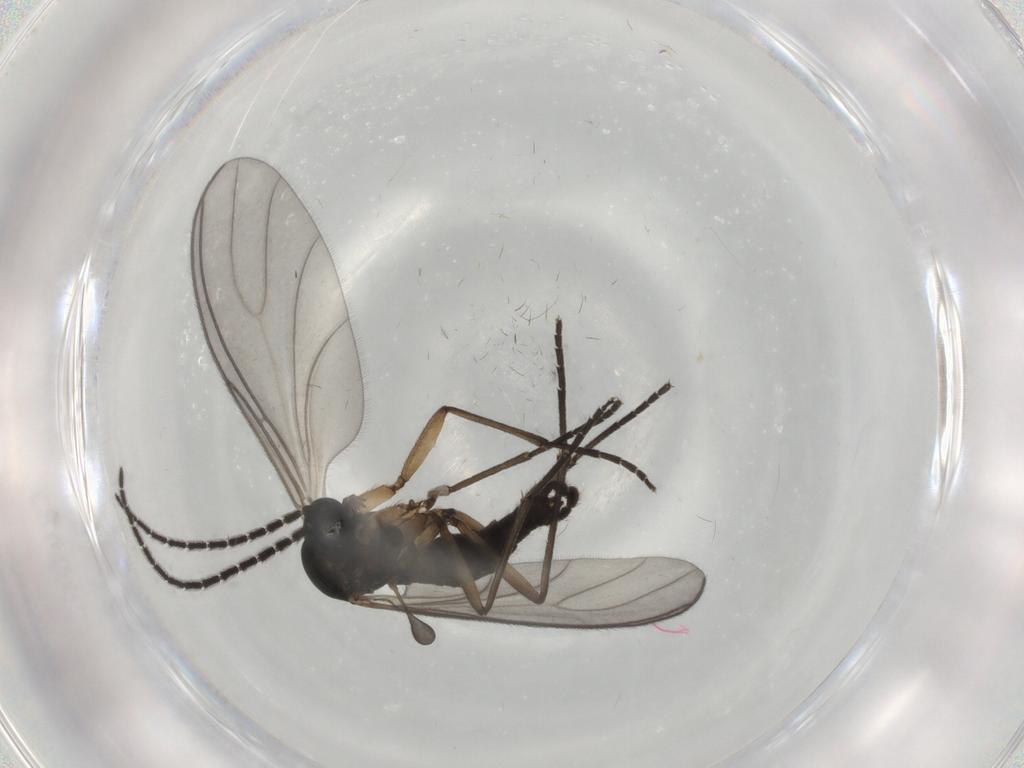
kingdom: Animalia
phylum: Arthropoda
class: Insecta
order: Diptera
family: Sciaridae
